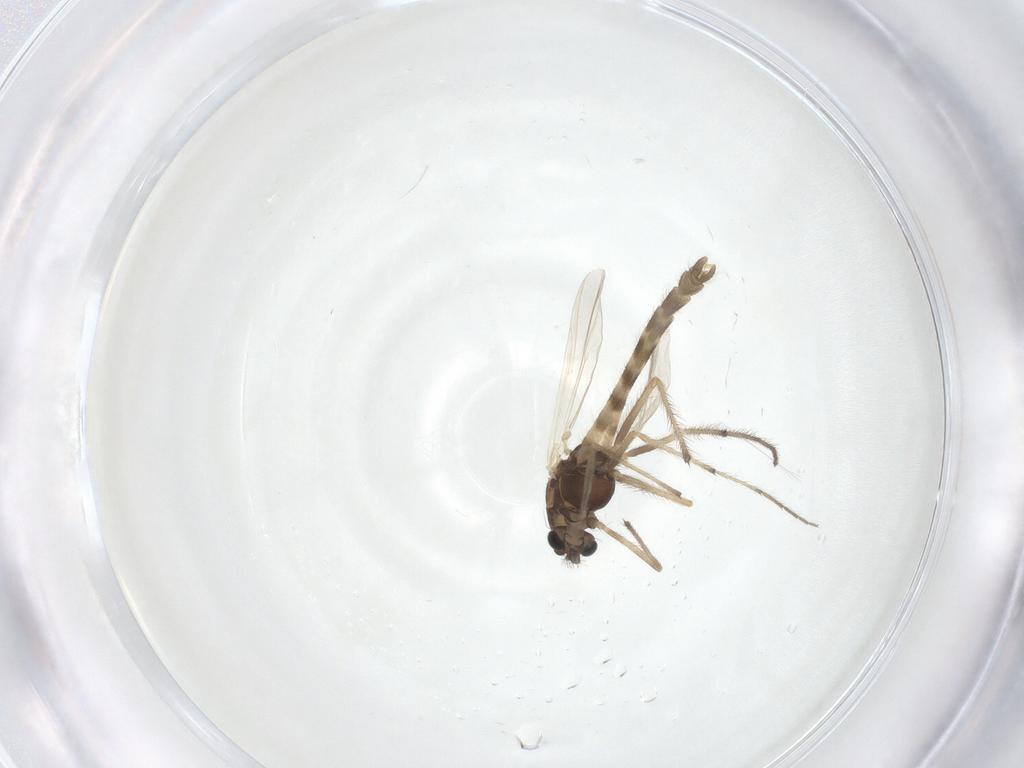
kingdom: Animalia
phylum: Arthropoda
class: Insecta
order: Diptera
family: Chironomidae
